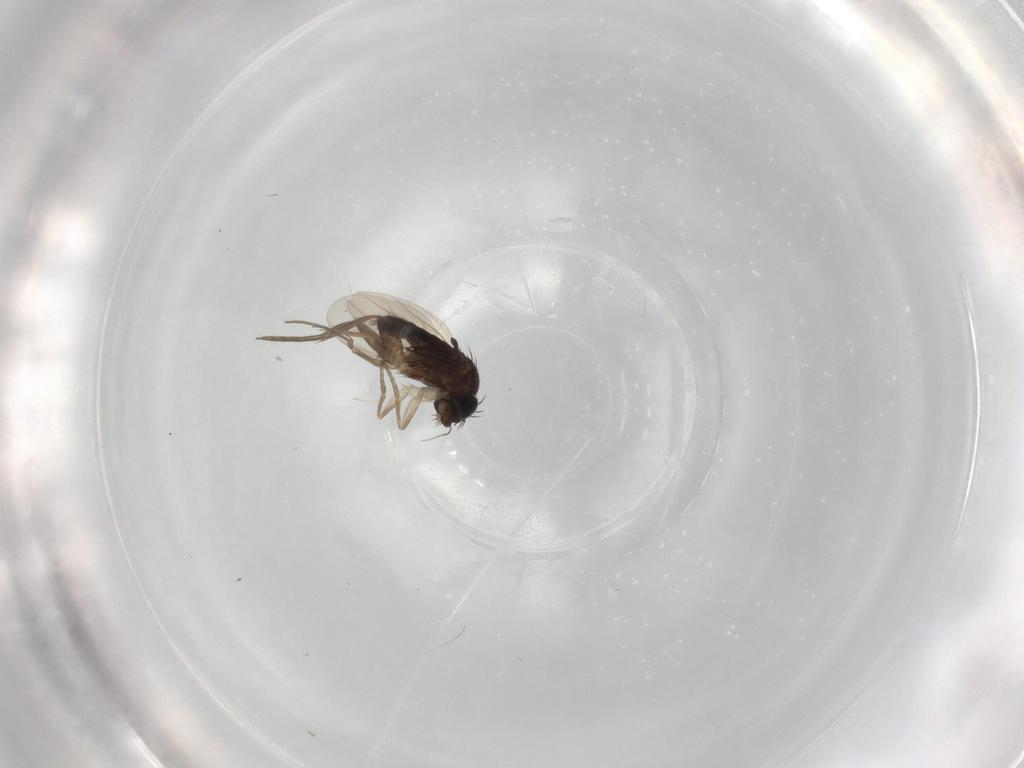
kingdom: Animalia
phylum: Arthropoda
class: Insecta
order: Diptera
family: Phoridae
